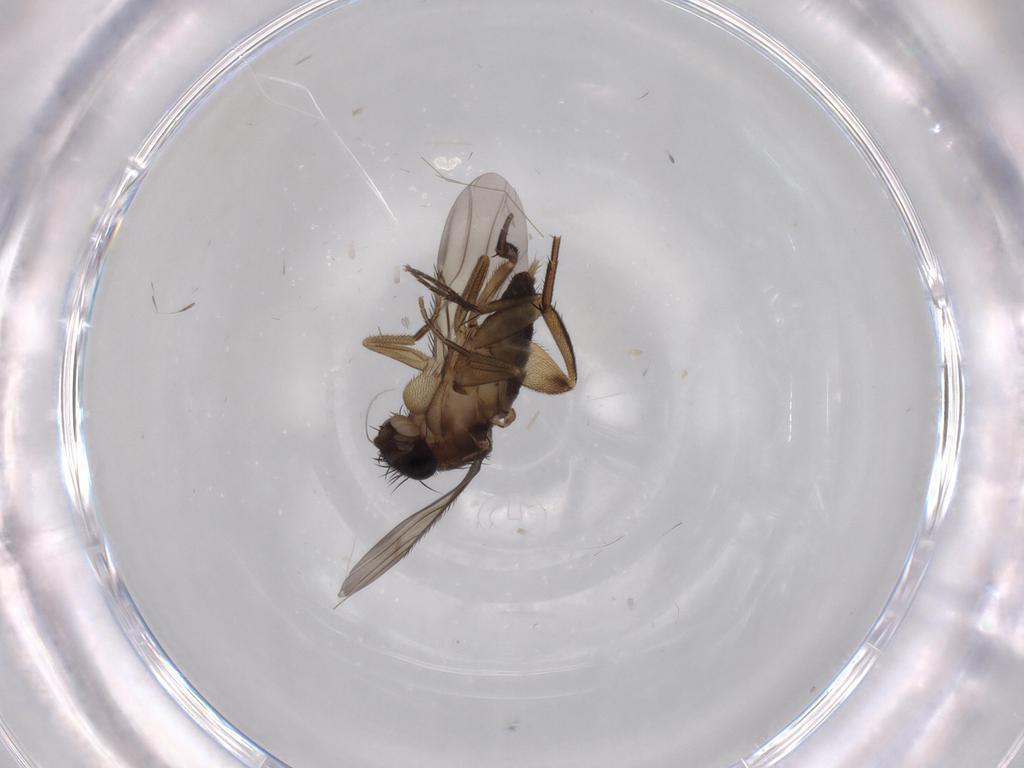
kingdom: Animalia
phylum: Arthropoda
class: Insecta
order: Diptera
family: Phoridae
